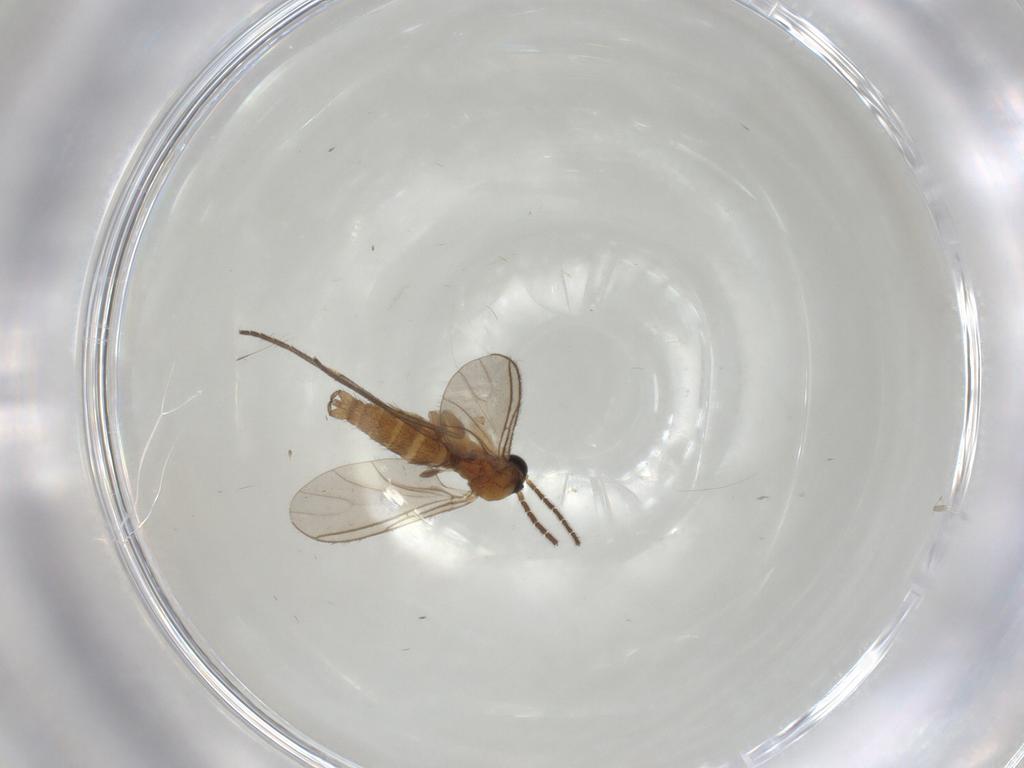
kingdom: Animalia
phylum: Arthropoda
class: Insecta
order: Diptera
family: Sciaridae
